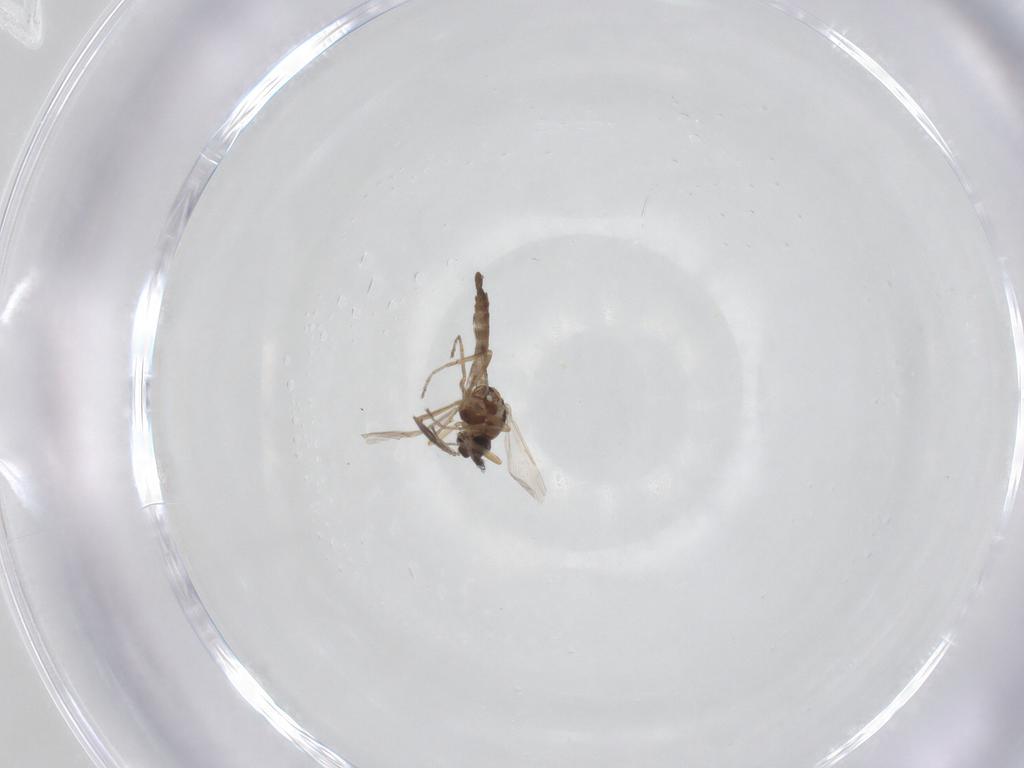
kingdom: Animalia
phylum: Arthropoda
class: Insecta
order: Diptera
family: Ceratopogonidae
